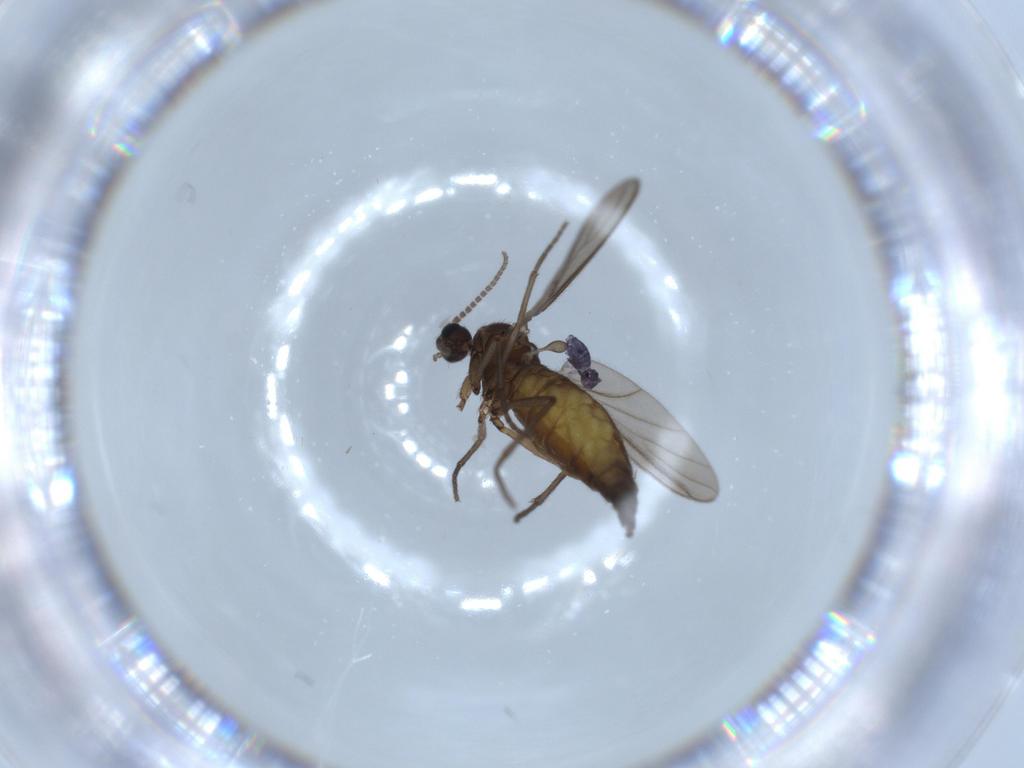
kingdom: Animalia
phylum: Arthropoda
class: Insecta
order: Diptera
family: Sciaridae
